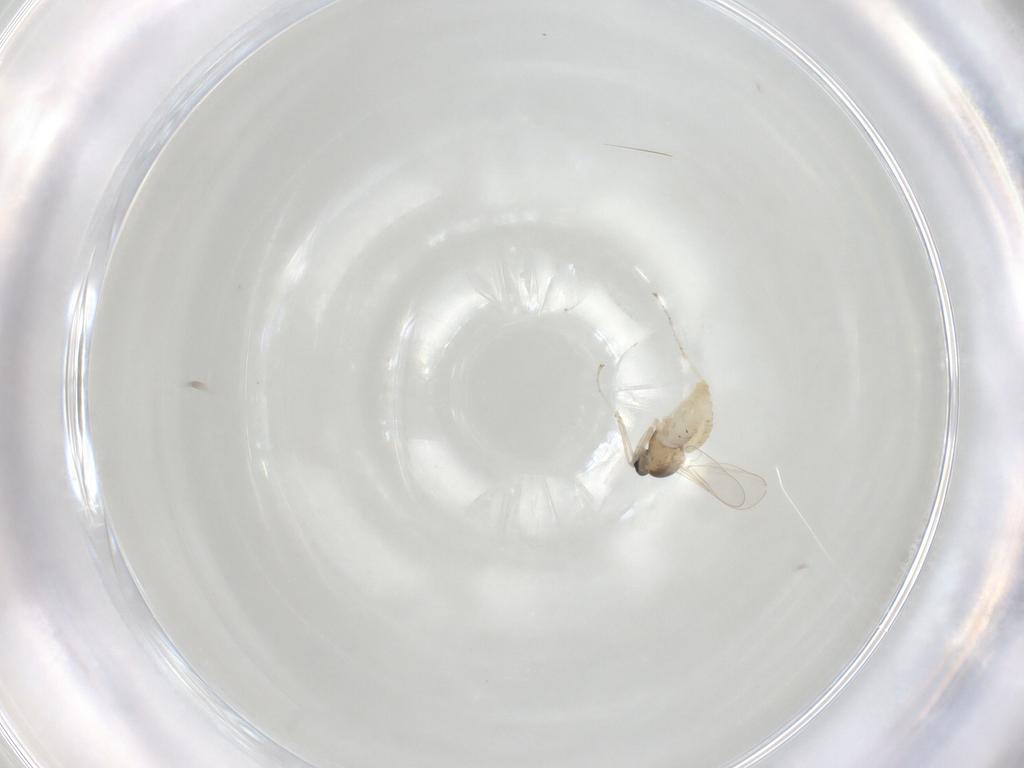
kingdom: Animalia
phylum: Arthropoda
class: Insecta
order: Diptera
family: Cecidomyiidae
